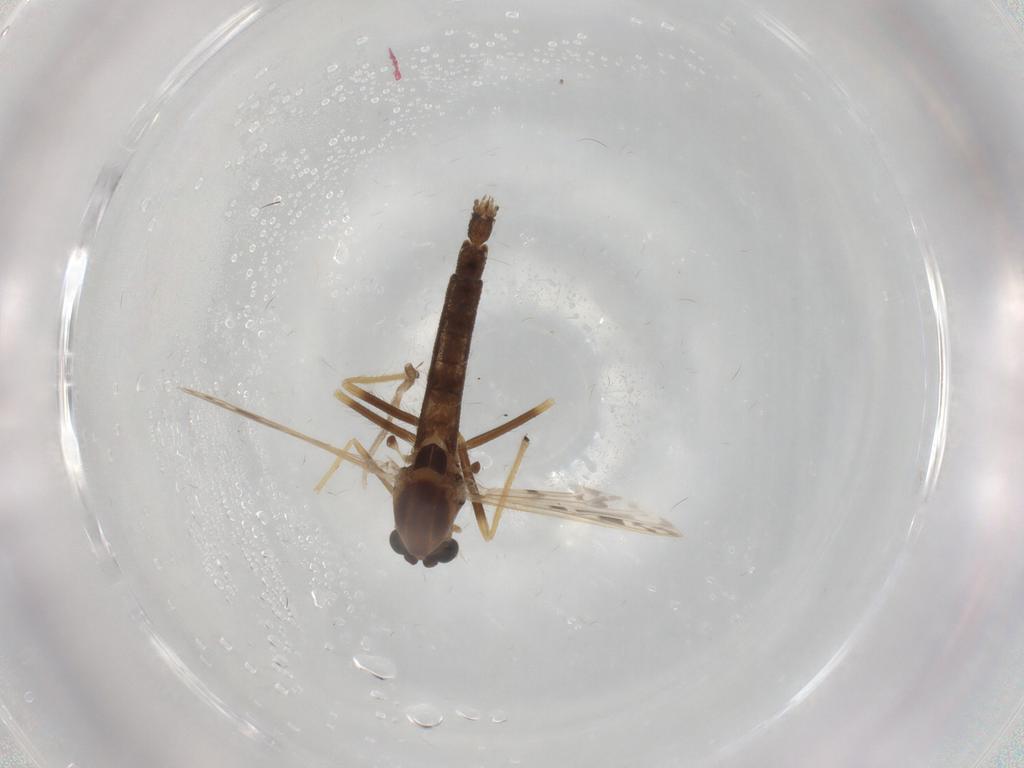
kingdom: Animalia
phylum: Arthropoda
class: Insecta
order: Diptera
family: Chironomidae
